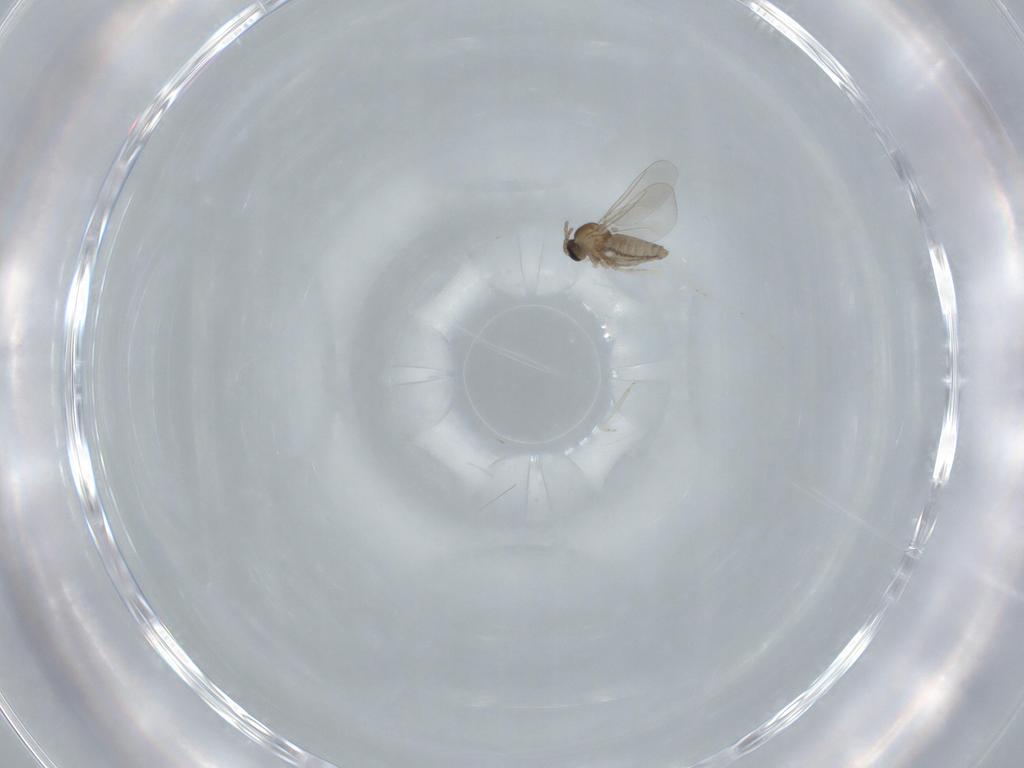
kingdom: Animalia
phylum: Arthropoda
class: Insecta
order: Diptera
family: Cecidomyiidae
